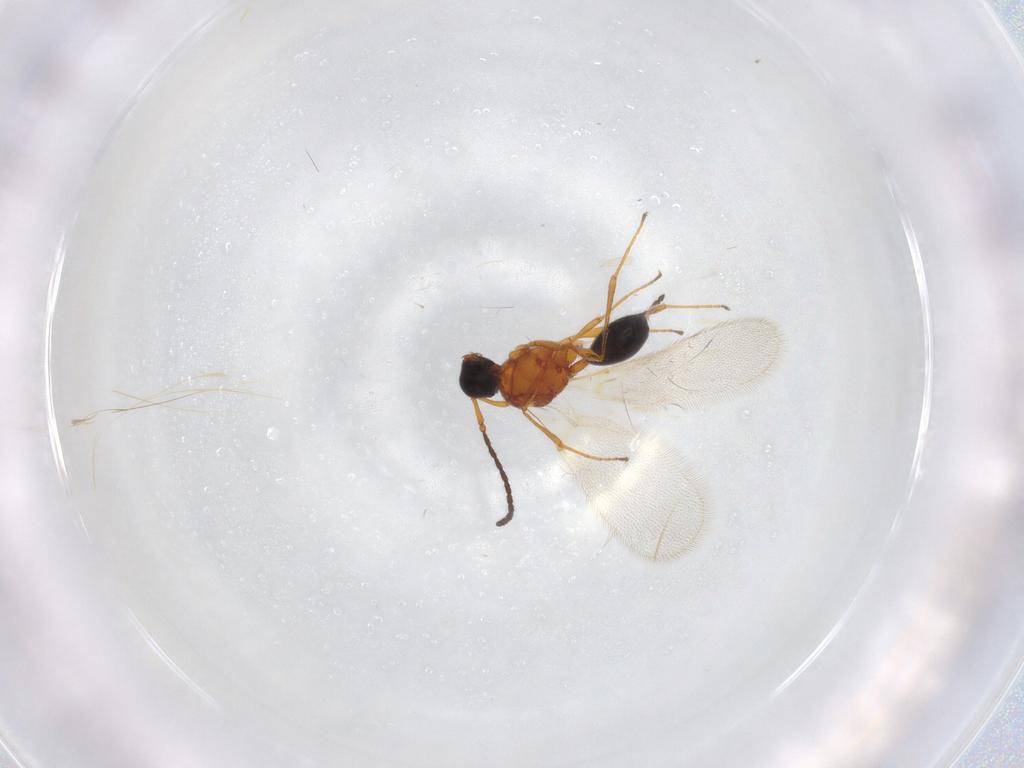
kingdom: Animalia
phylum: Arthropoda
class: Insecta
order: Hymenoptera
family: Diapriidae
